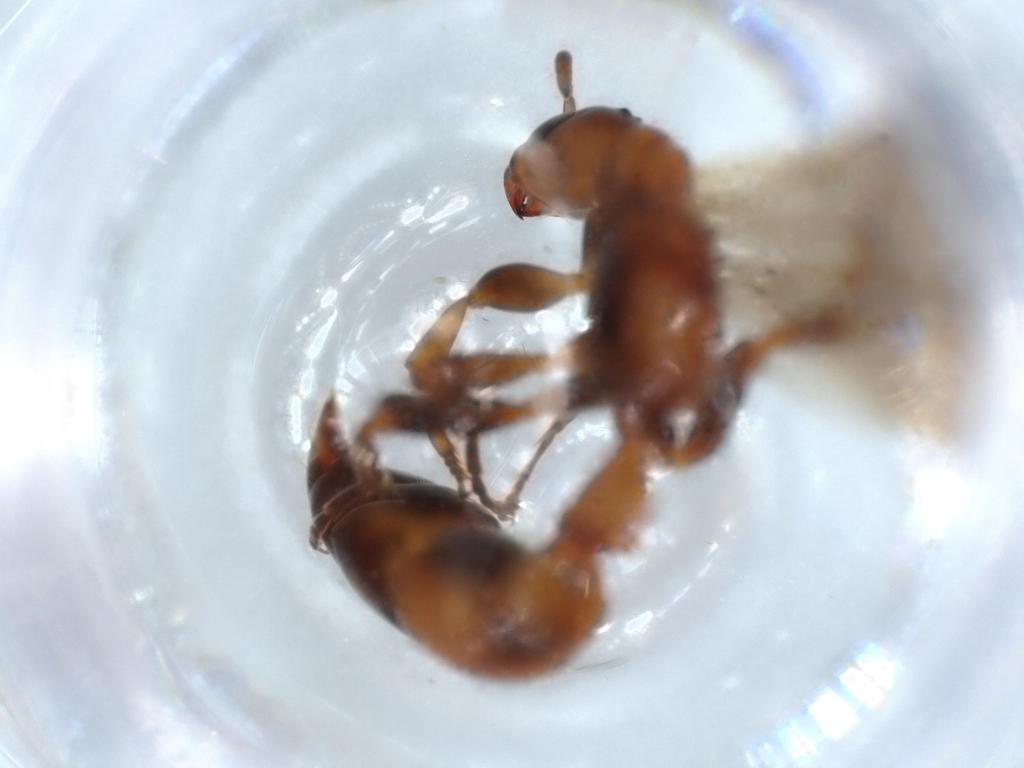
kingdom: Animalia
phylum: Arthropoda
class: Insecta
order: Hymenoptera
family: Formicidae
